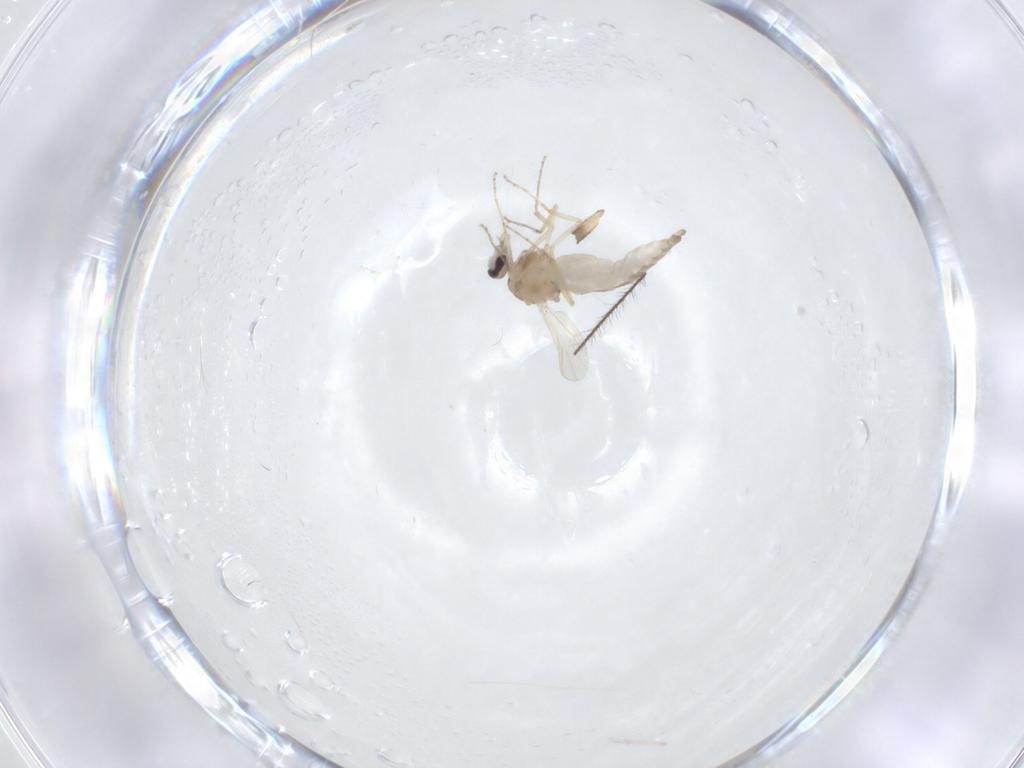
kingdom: Animalia
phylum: Arthropoda
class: Insecta
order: Diptera
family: Ceratopogonidae
